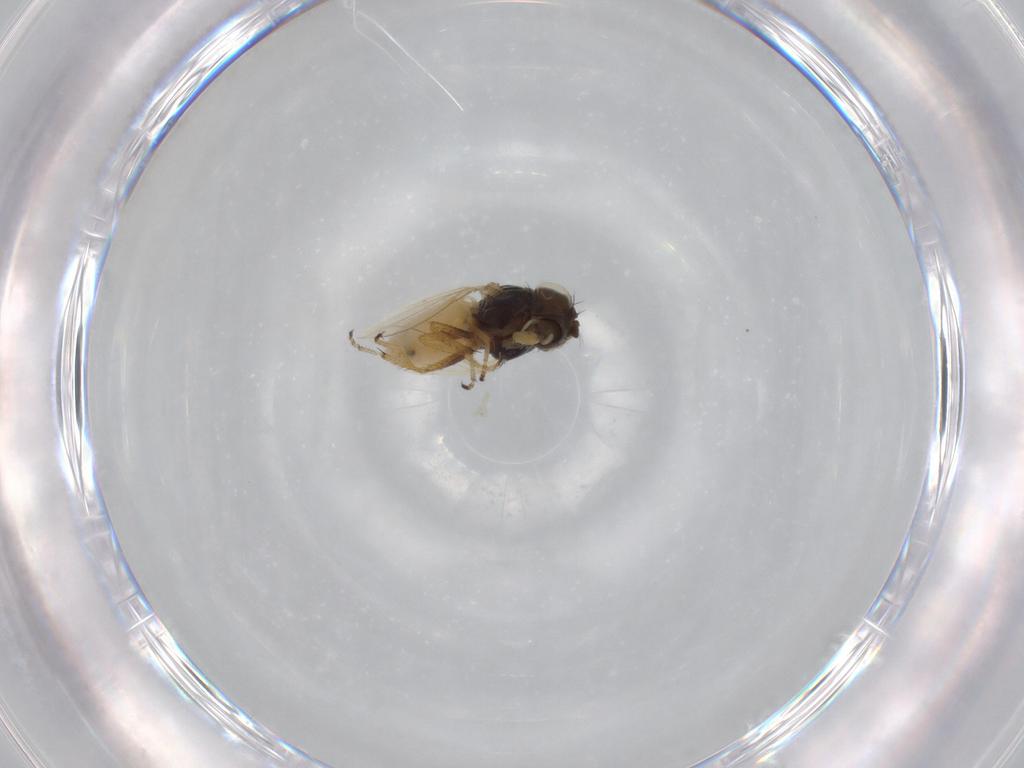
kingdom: Animalia
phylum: Arthropoda
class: Insecta
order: Diptera
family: Ephydridae
